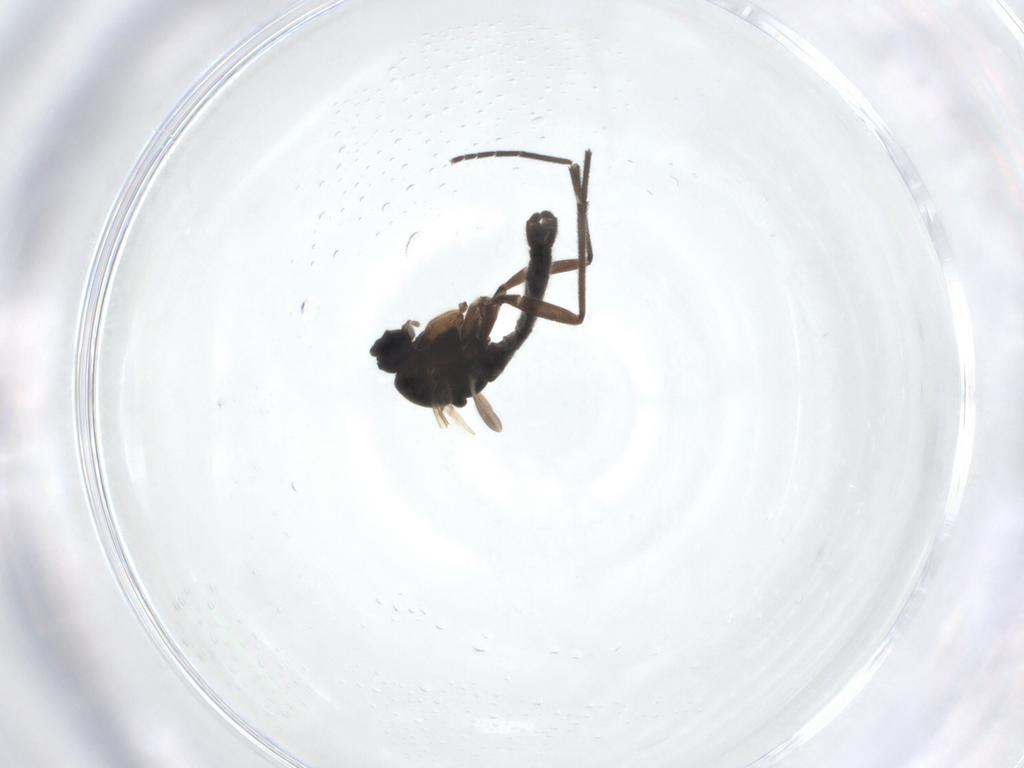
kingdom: Animalia
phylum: Arthropoda
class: Insecta
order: Diptera
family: Sciaridae
